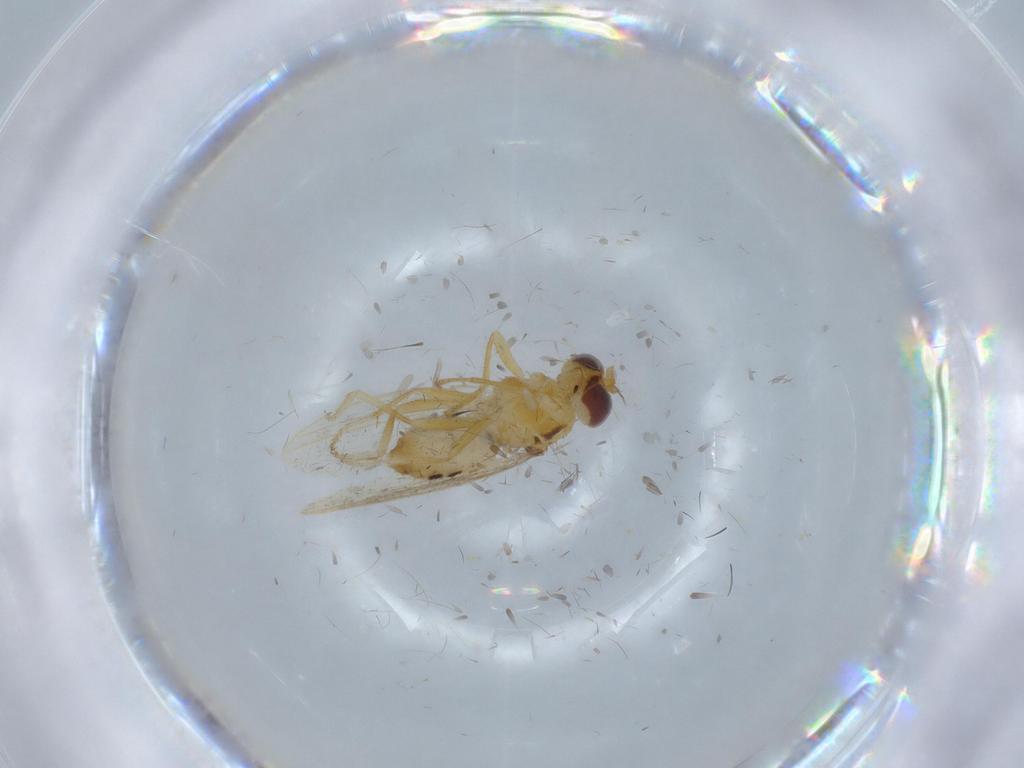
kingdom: Animalia
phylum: Arthropoda
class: Insecta
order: Diptera
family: Periscelididae
